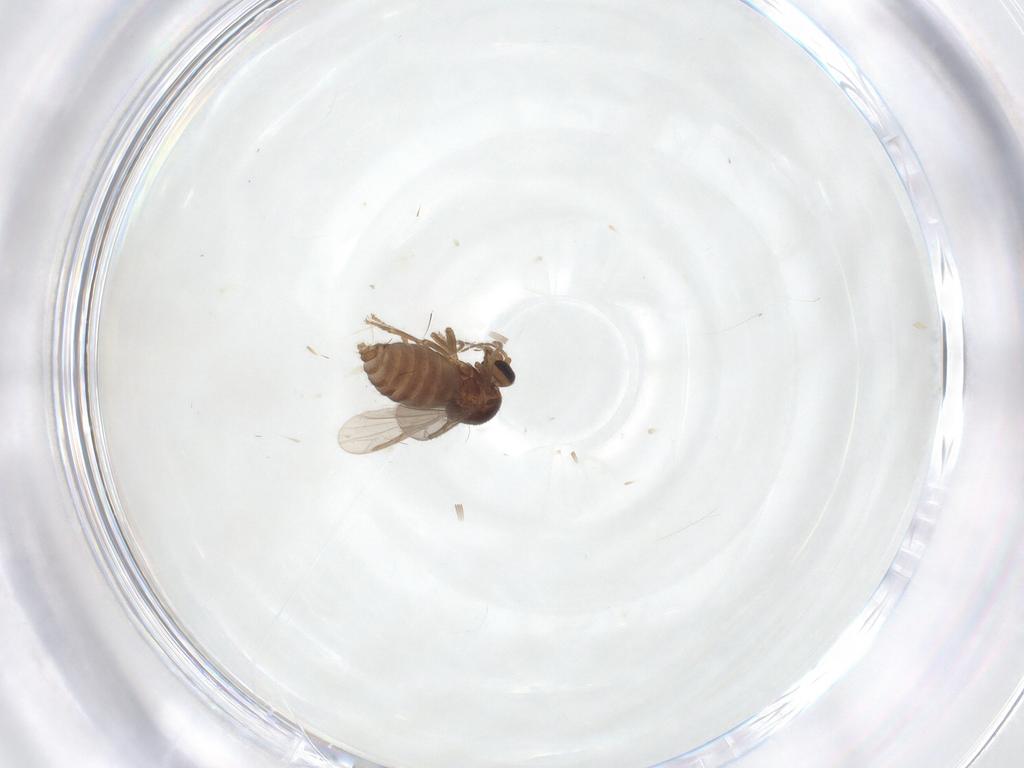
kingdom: Animalia
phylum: Arthropoda
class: Insecta
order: Diptera
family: Ceratopogonidae
